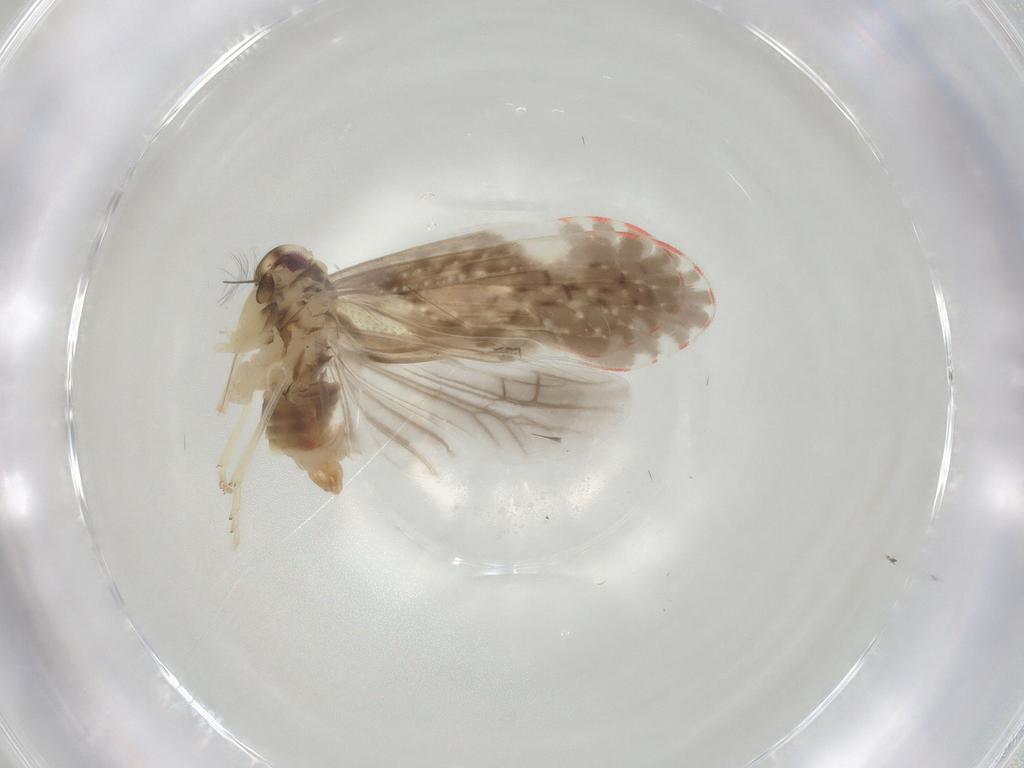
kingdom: Animalia
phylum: Arthropoda
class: Insecta
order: Hemiptera
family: Derbidae
